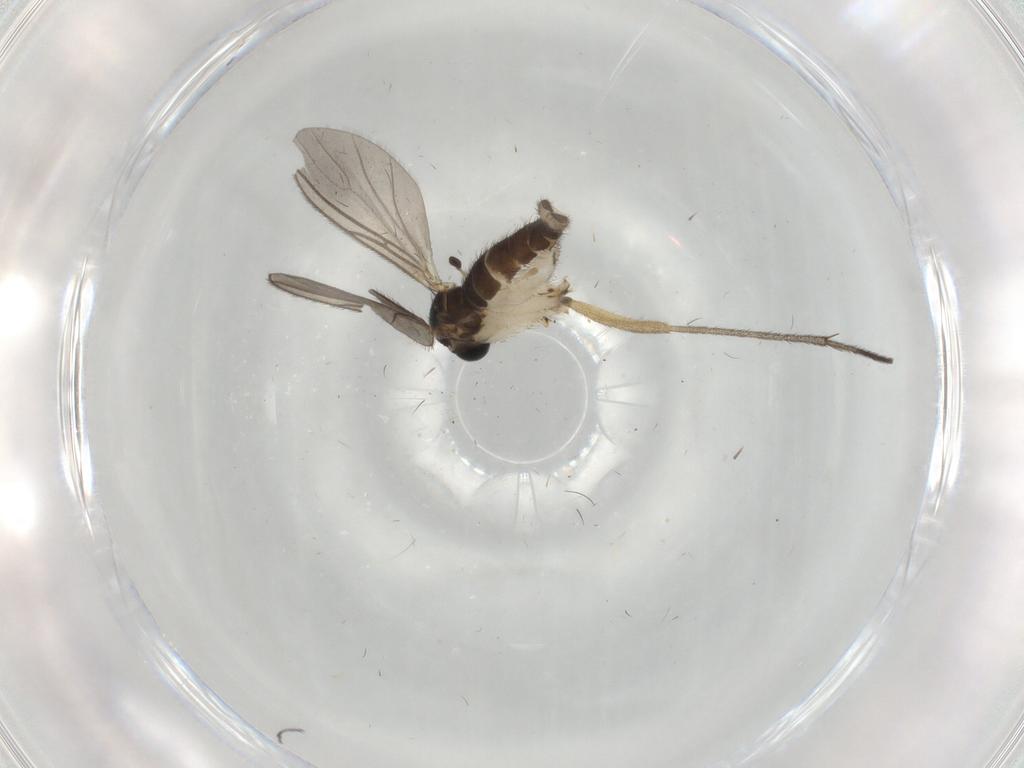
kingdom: Animalia
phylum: Arthropoda
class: Insecta
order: Diptera
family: Sciaridae
